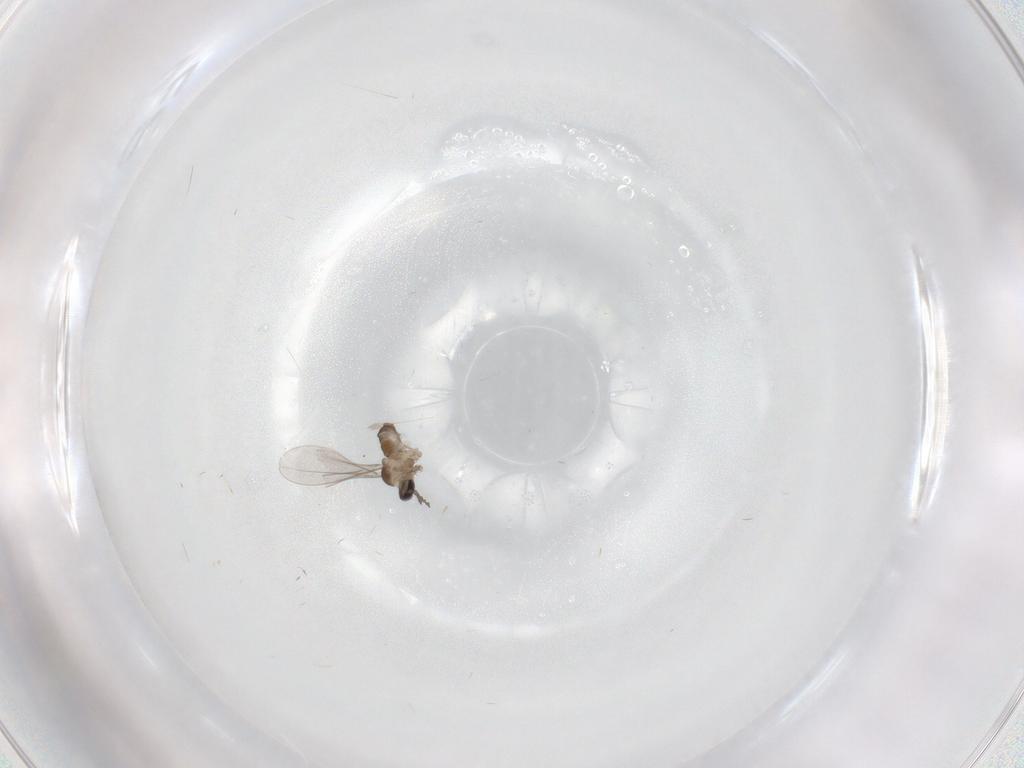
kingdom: Animalia
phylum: Arthropoda
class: Insecta
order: Diptera
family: Cecidomyiidae
